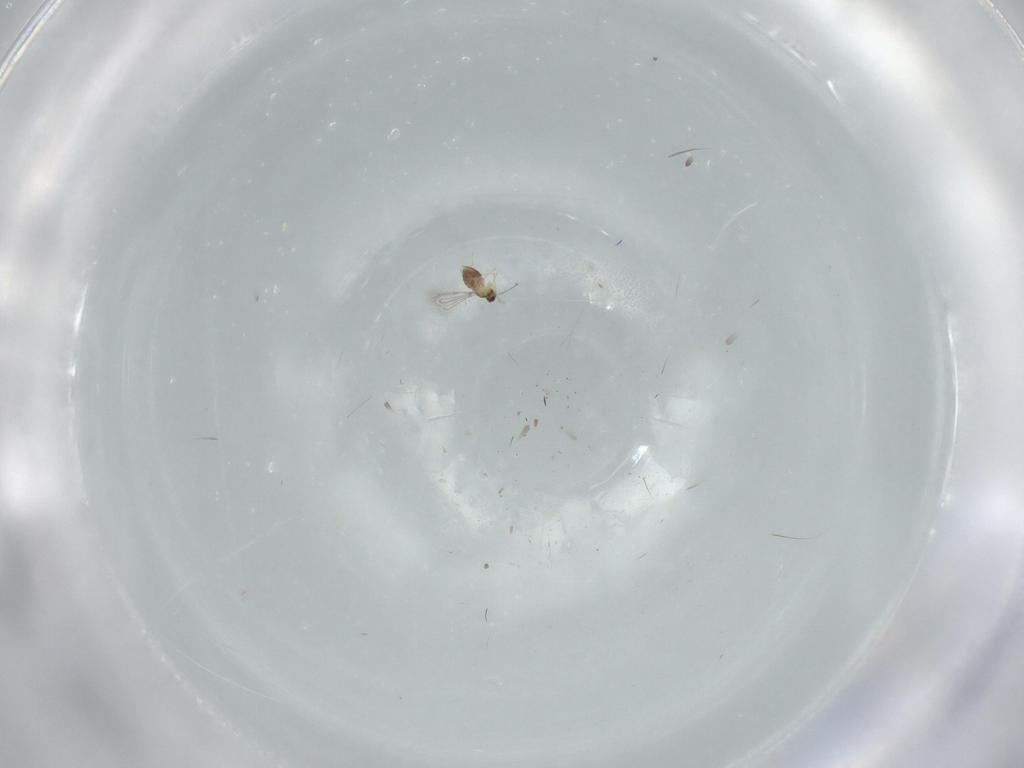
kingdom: Animalia
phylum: Arthropoda
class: Insecta
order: Hymenoptera
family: Mymaridae
